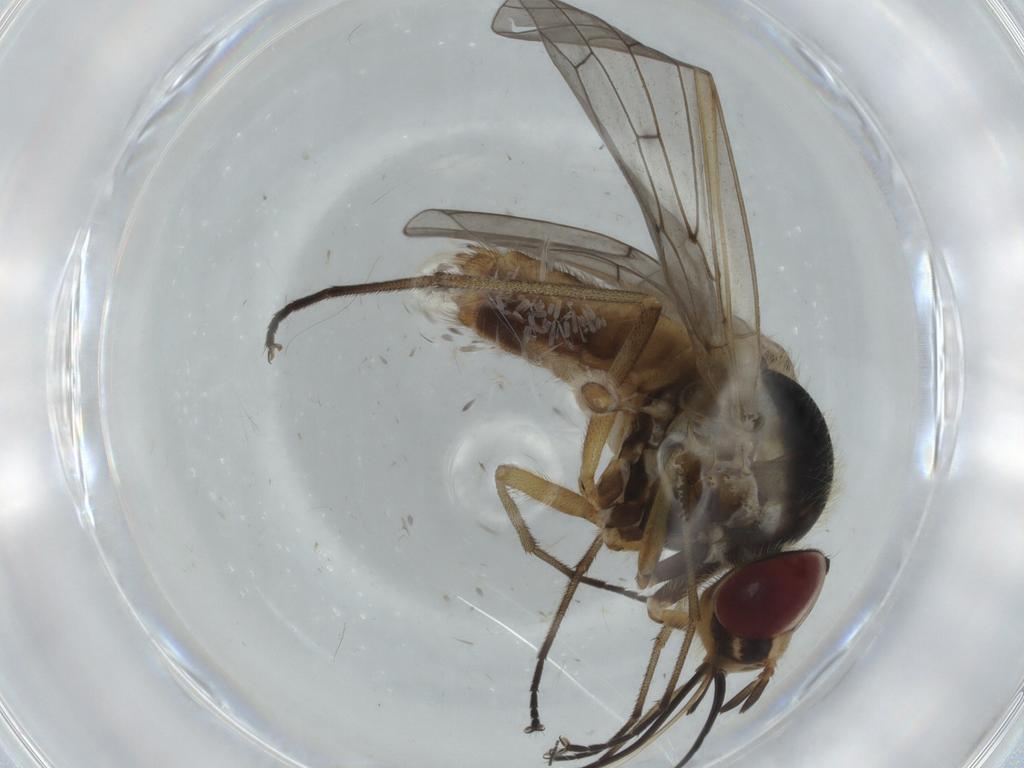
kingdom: Animalia
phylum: Arthropoda
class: Insecta
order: Diptera
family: Bombyliidae
